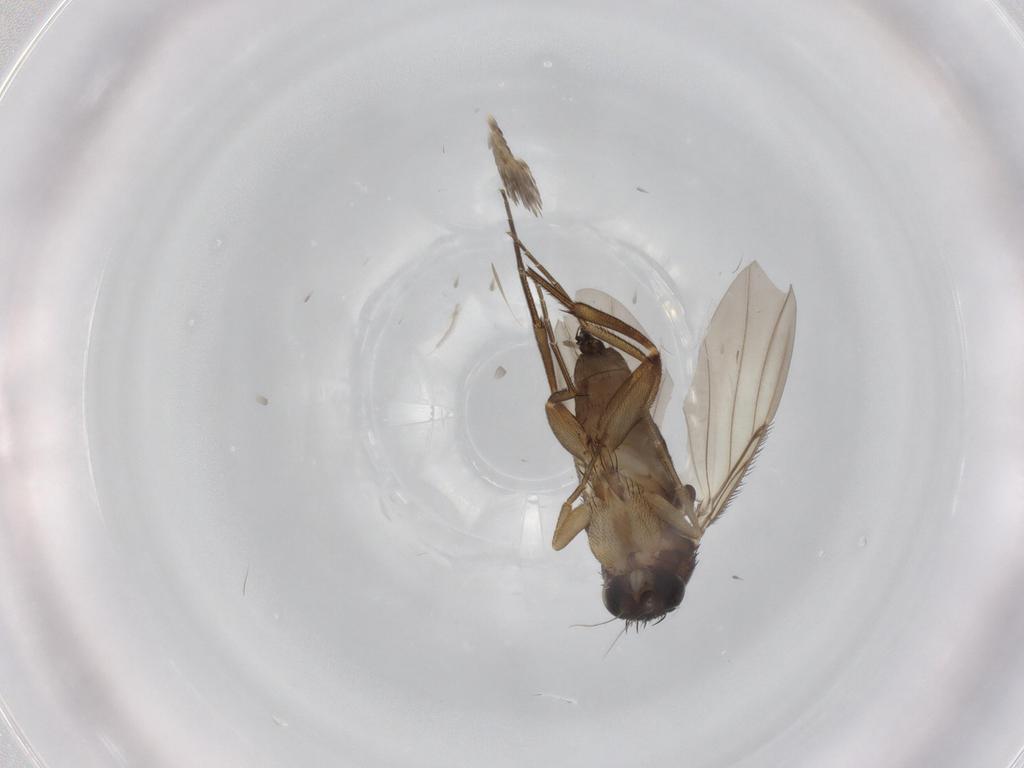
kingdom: Animalia
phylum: Arthropoda
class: Insecta
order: Diptera
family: Phoridae
